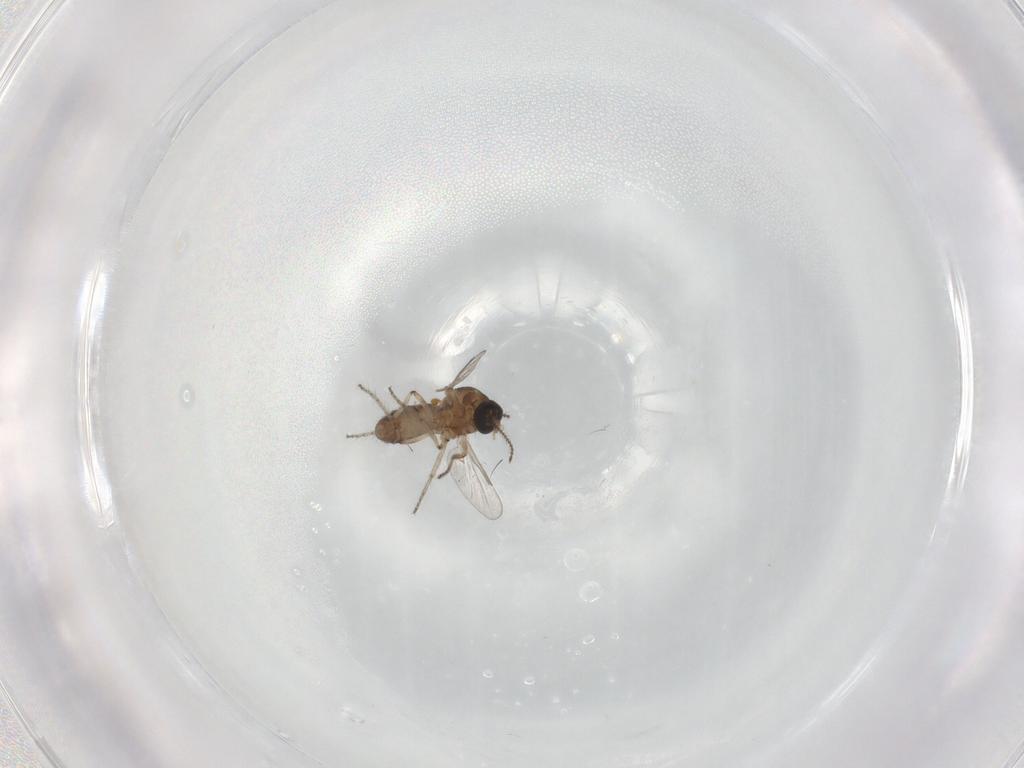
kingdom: Animalia
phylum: Arthropoda
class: Insecta
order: Diptera
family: Ceratopogonidae
